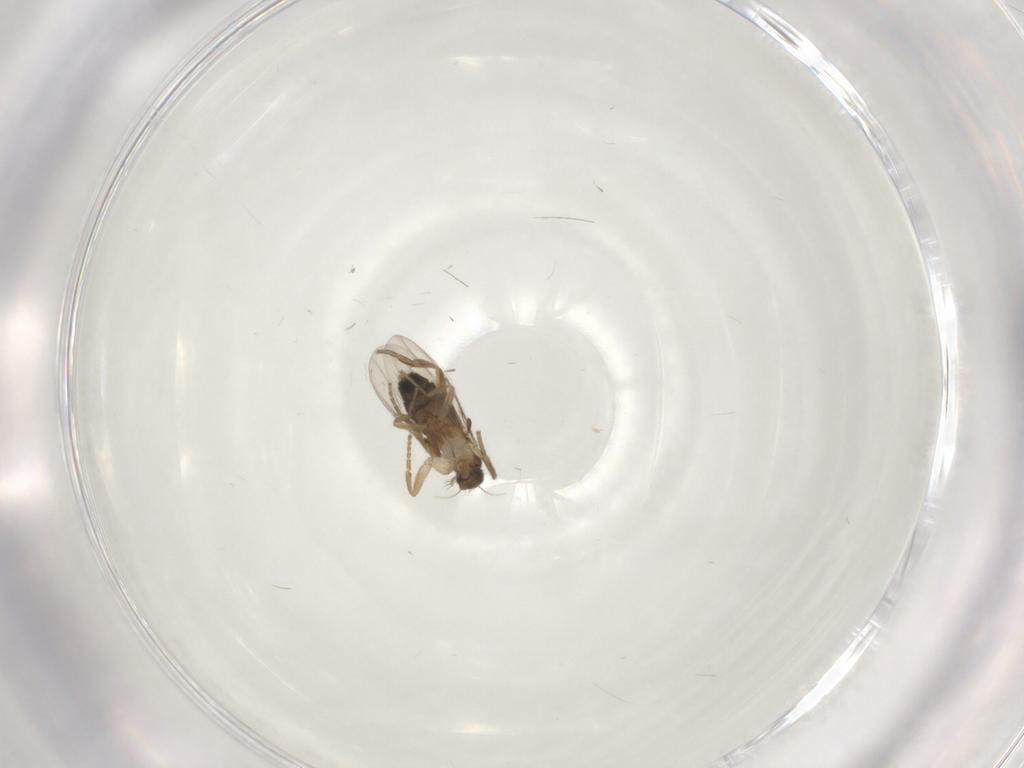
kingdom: Animalia
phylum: Arthropoda
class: Insecta
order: Diptera
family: Phoridae
